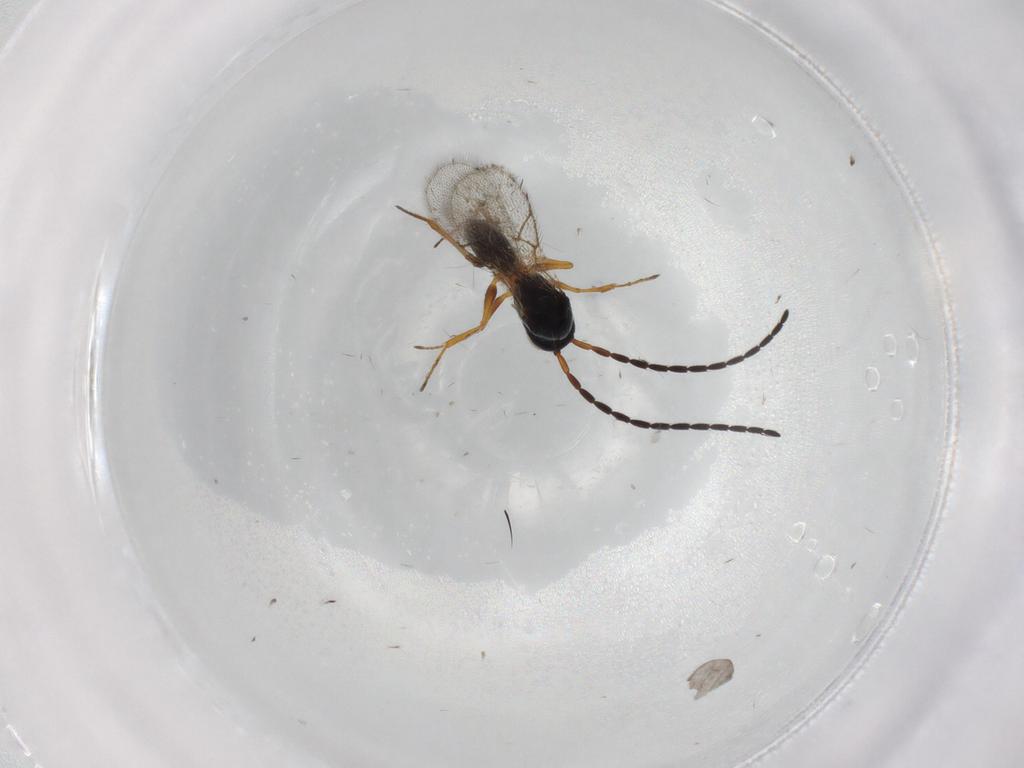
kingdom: Animalia
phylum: Arthropoda
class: Insecta
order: Hymenoptera
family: Figitidae
